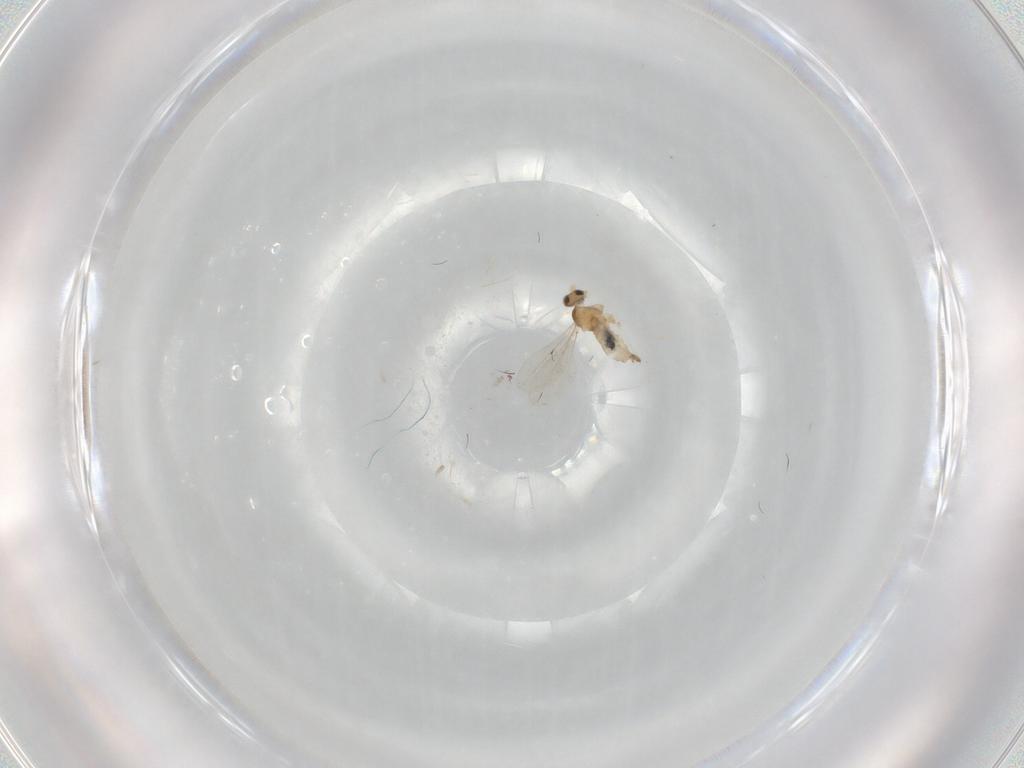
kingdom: Animalia
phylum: Arthropoda
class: Insecta
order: Diptera
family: Cecidomyiidae
